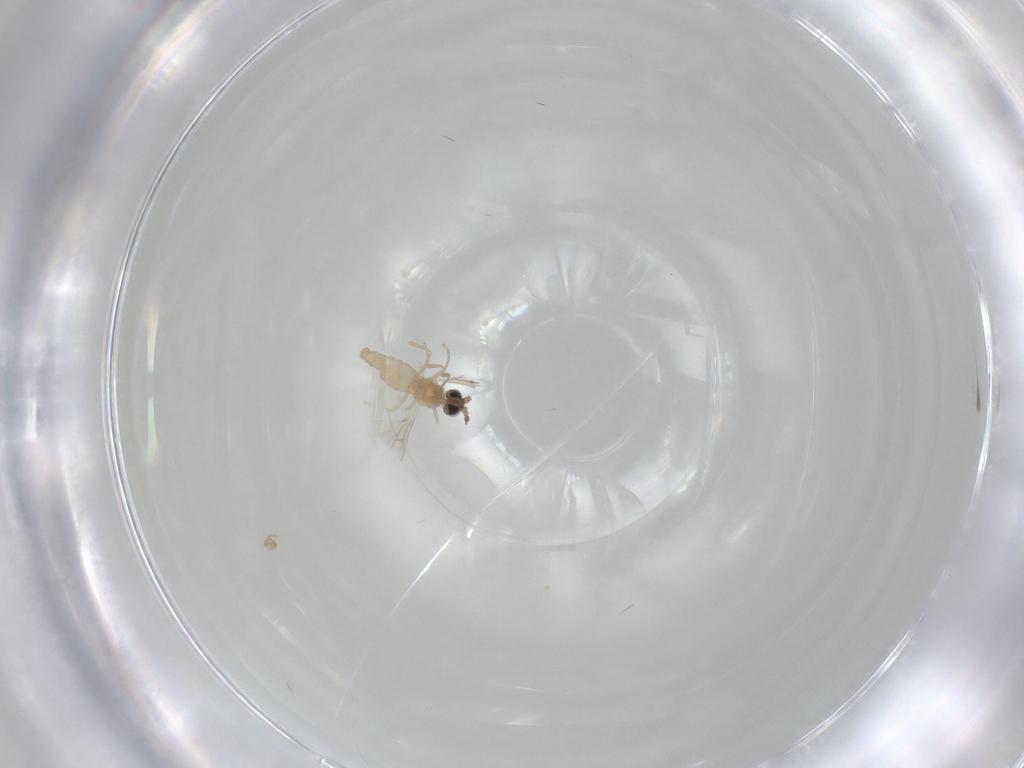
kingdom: Animalia
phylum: Arthropoda
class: Insecta
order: Diptera
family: Cecidomyiidae
